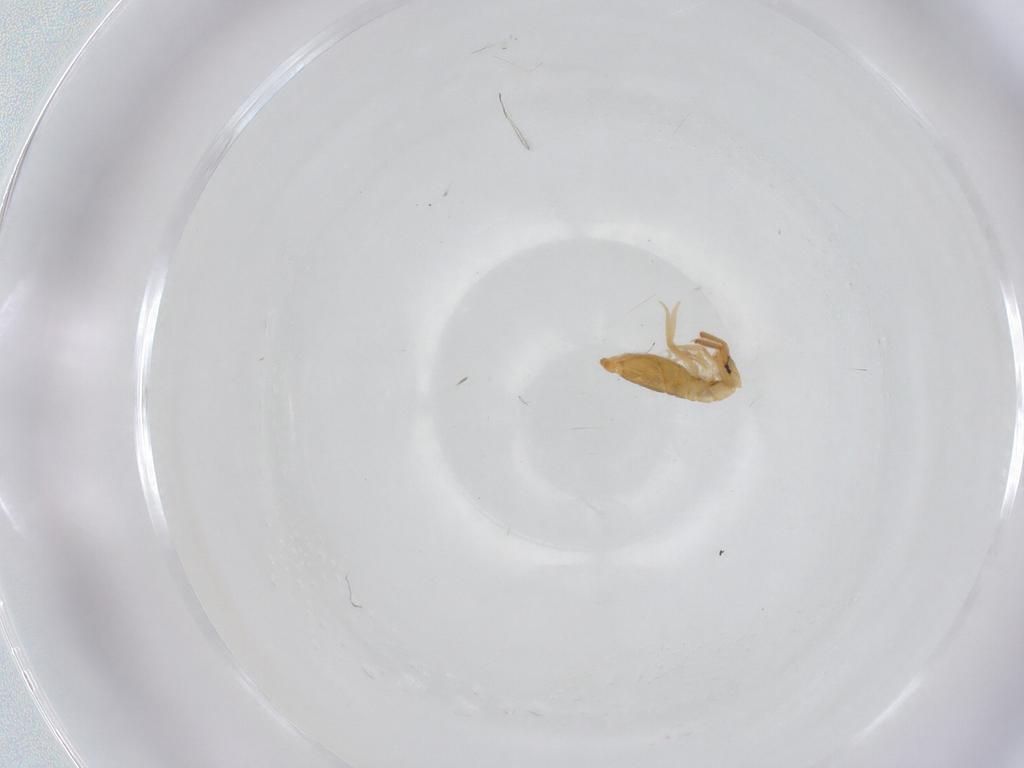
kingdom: Animalia
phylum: Arthropoda
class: Collembola
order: Entomobryomorpha
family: Entomobryidae
